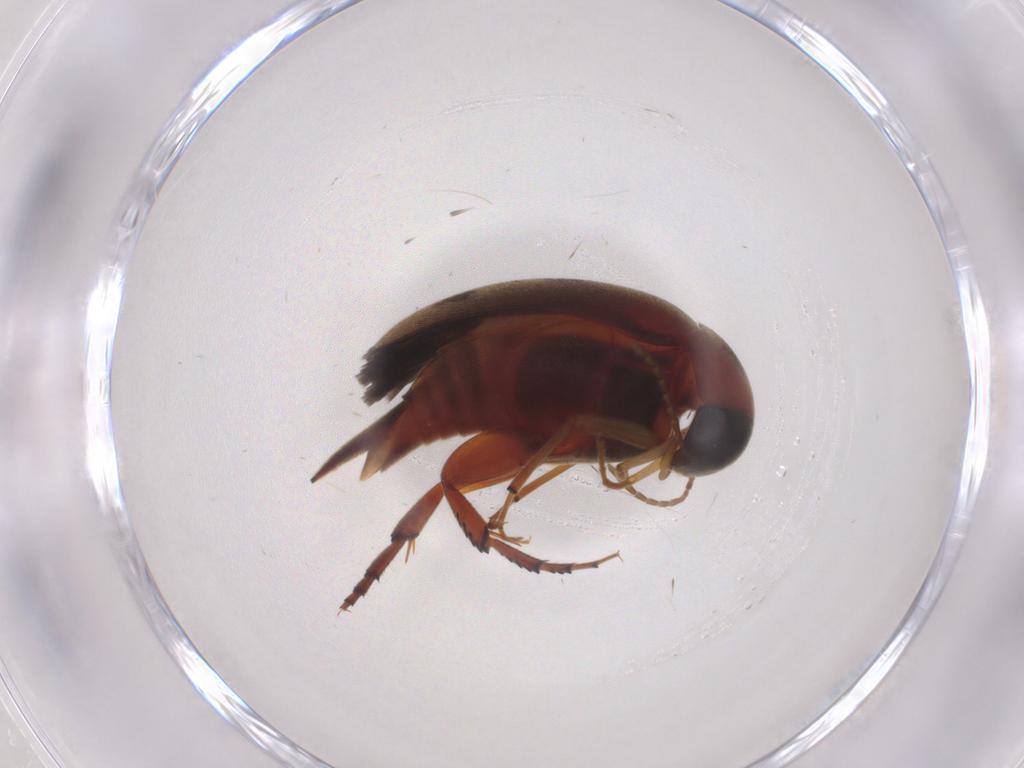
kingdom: Animalia
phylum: Arthropoda
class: Insecta
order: Coleoptera
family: Mordellidae
